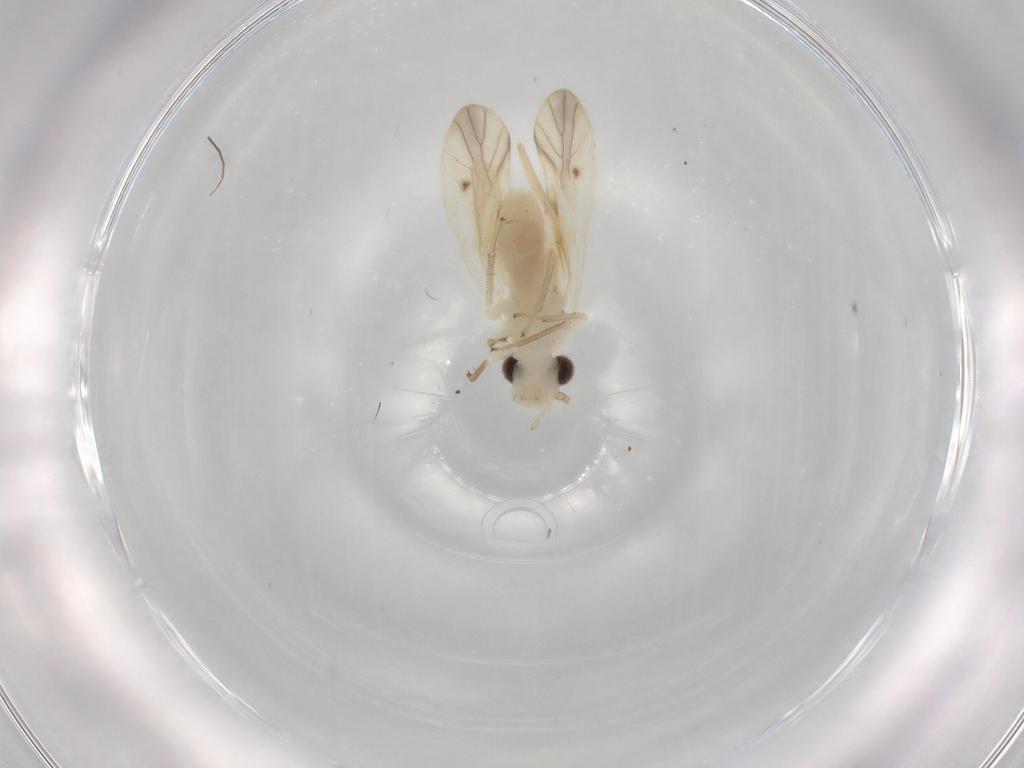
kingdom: Animalia
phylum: Arthropoda
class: Insecta
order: Psocodea
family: Caeciliusidae
